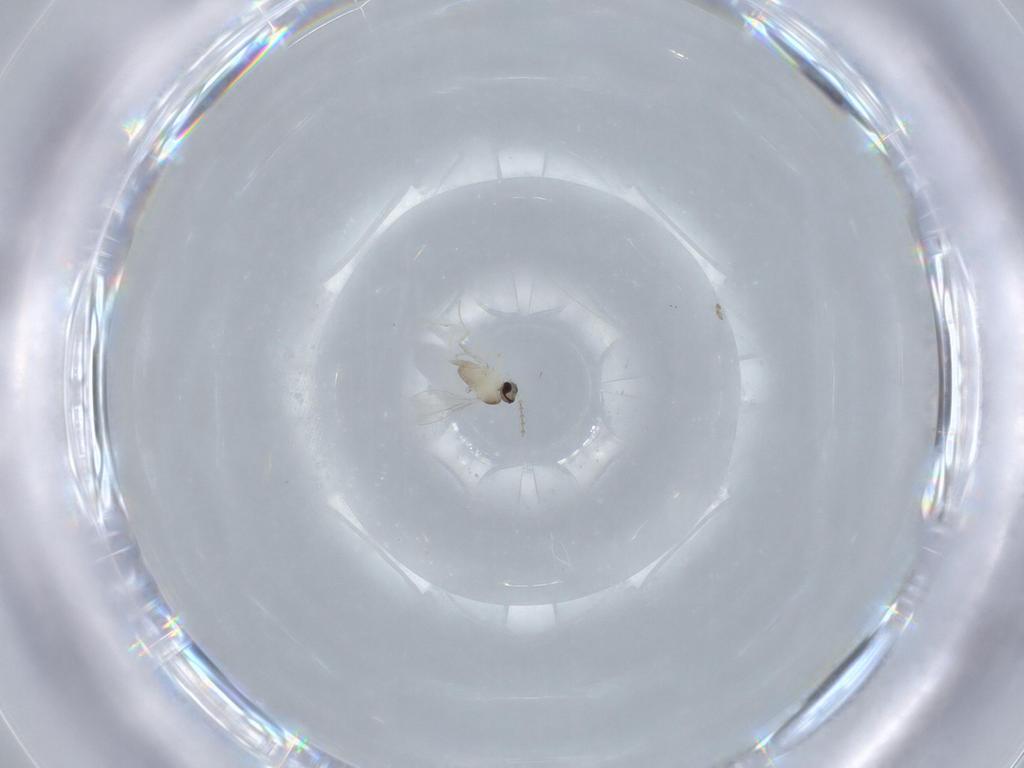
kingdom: Animalia
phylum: Arthropoda
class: Insecta
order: Diptera
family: Cecidomyiidae
